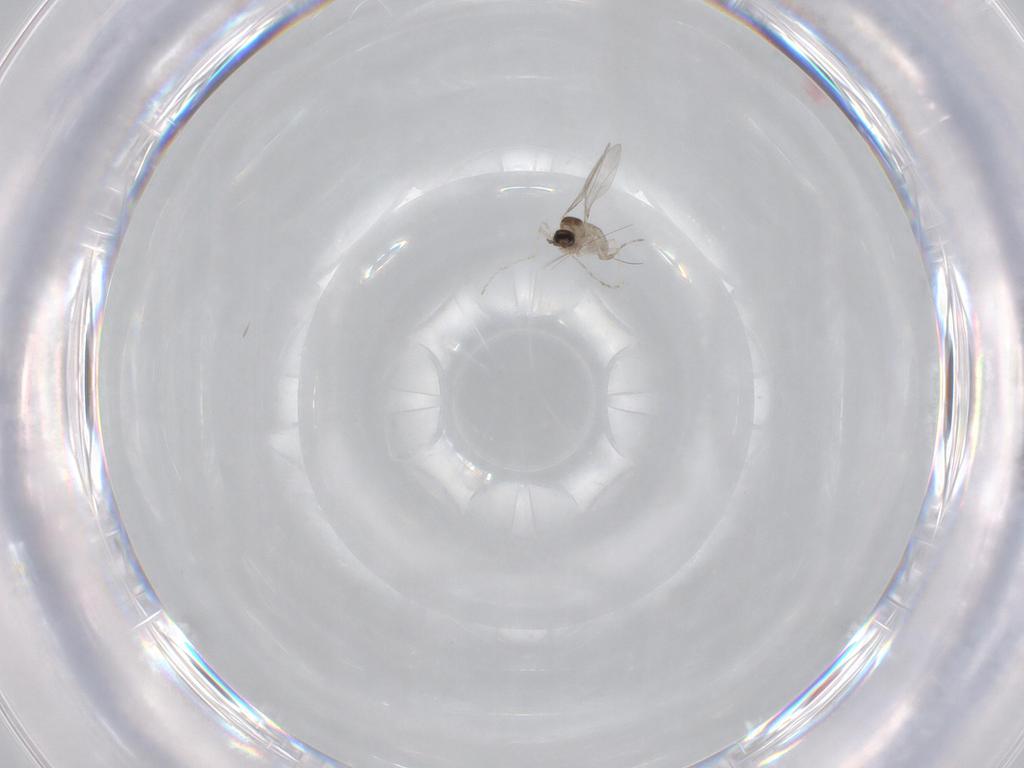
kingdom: Animalia
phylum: Arthropoda
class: Insecta
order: Diptera
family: Cecidomyiidae
